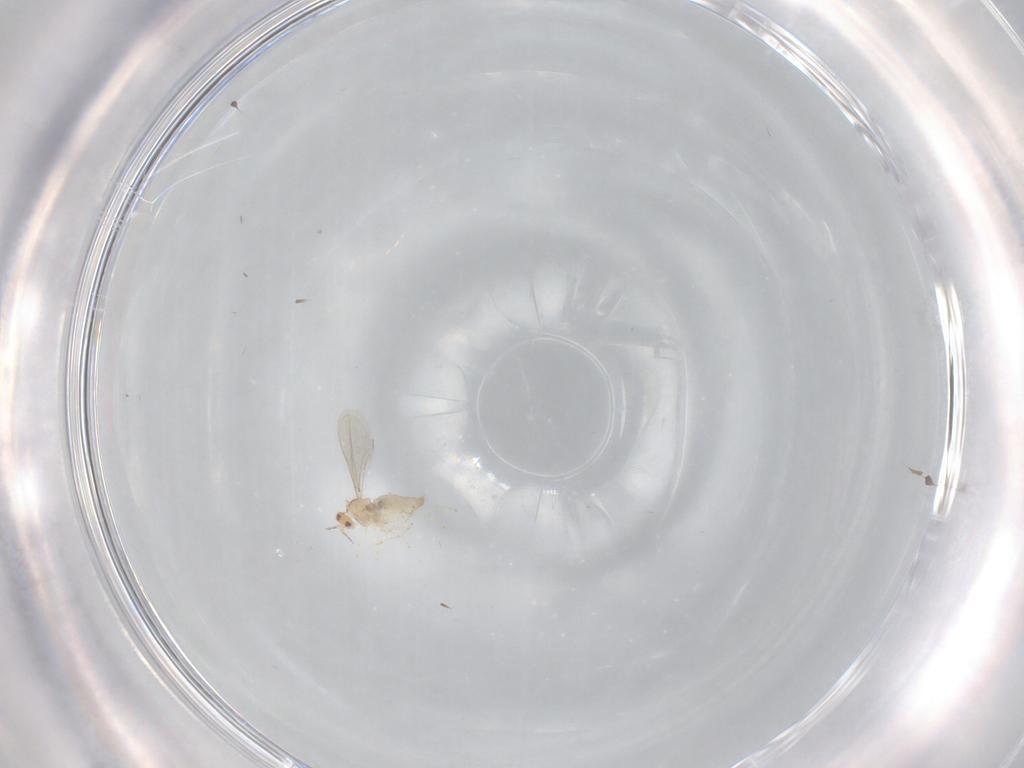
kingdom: Animalia
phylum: Arthropoda
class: Insecta
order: Diptera
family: Cecidomyiidae
